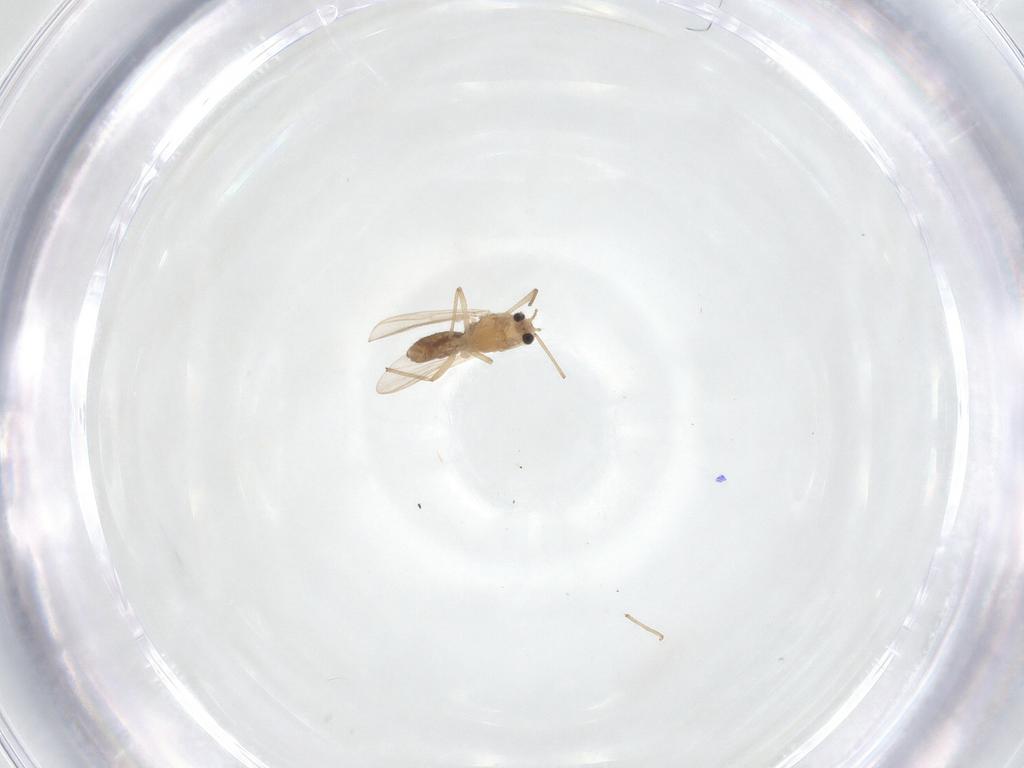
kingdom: Animalia
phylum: Arthropoda
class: Insecta
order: Diptera
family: Chironomidae
